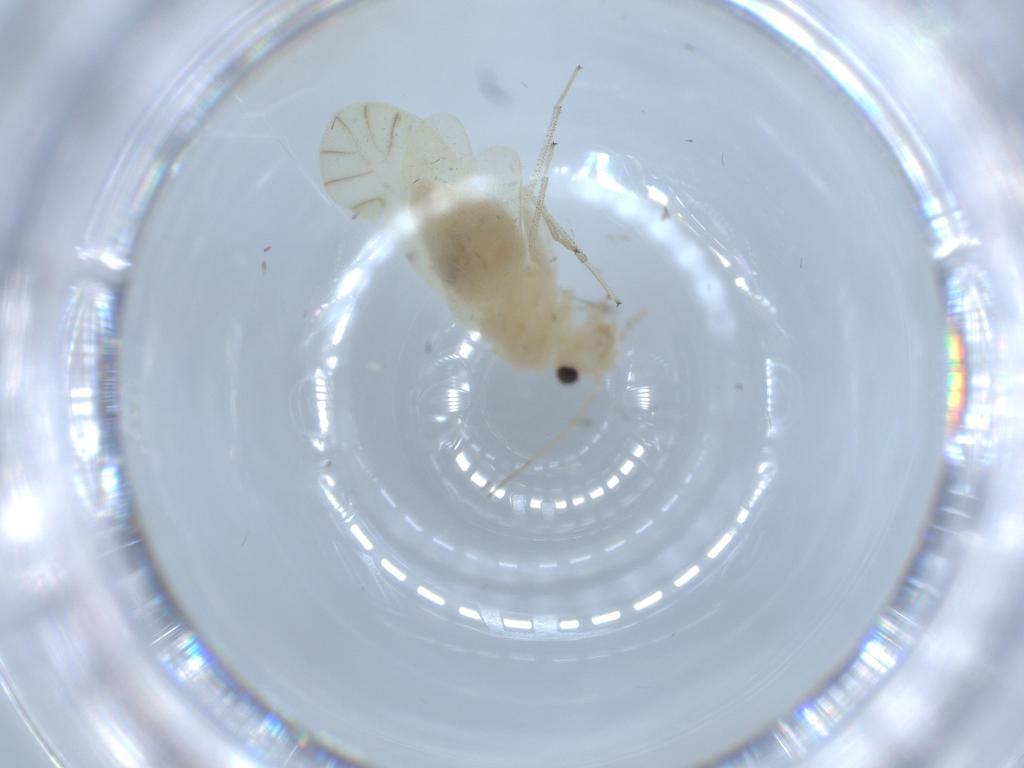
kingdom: Animalia
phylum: Arthropoda
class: Insecta
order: Psocodea
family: Caeciliusidae
